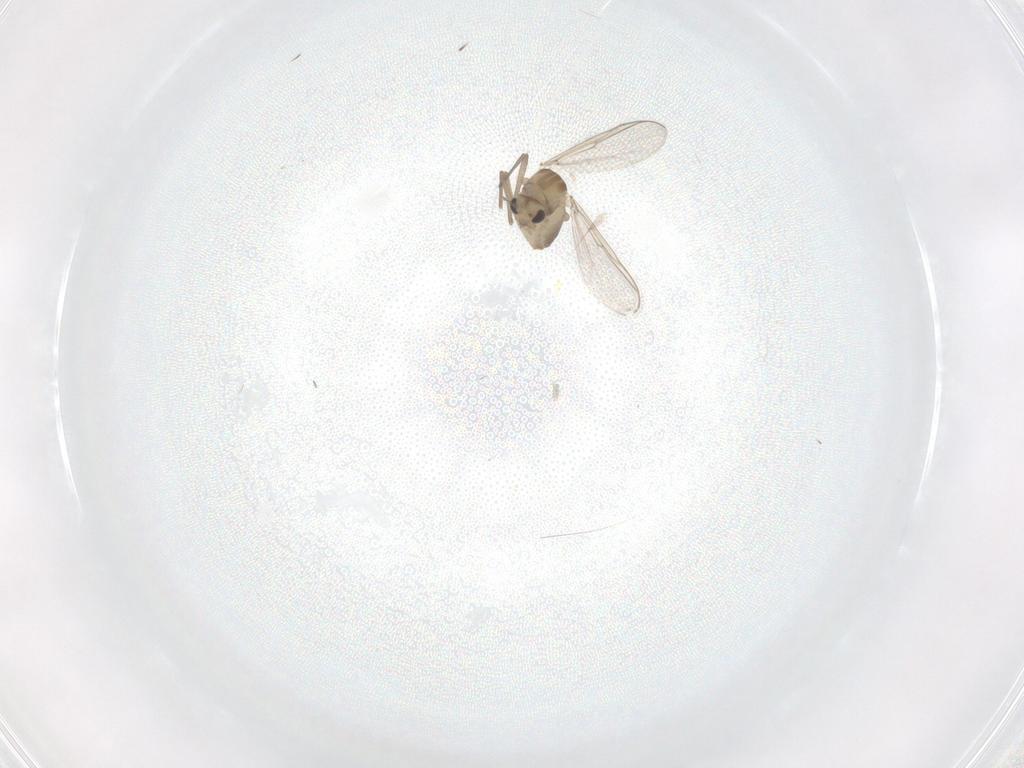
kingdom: Animalia
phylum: Arthropoda
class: Insecta
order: Diptera
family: Chironomidae
